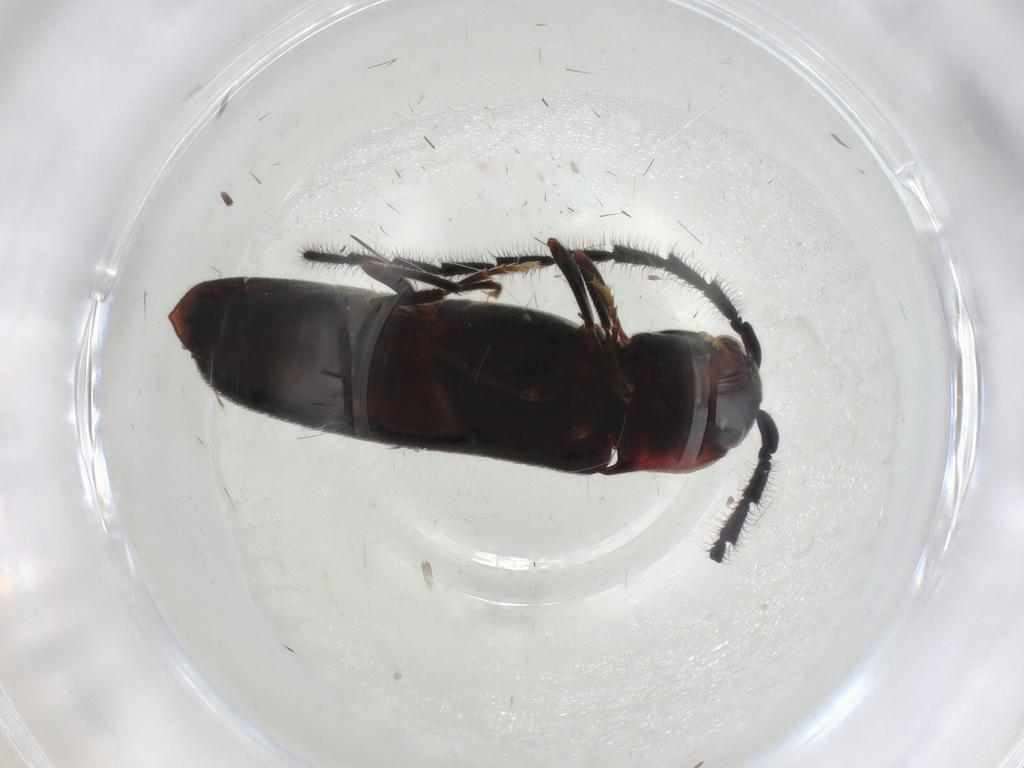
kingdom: Animalia
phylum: Arthropoda
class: Insecta
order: Coleoptera
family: Eucnemidae
